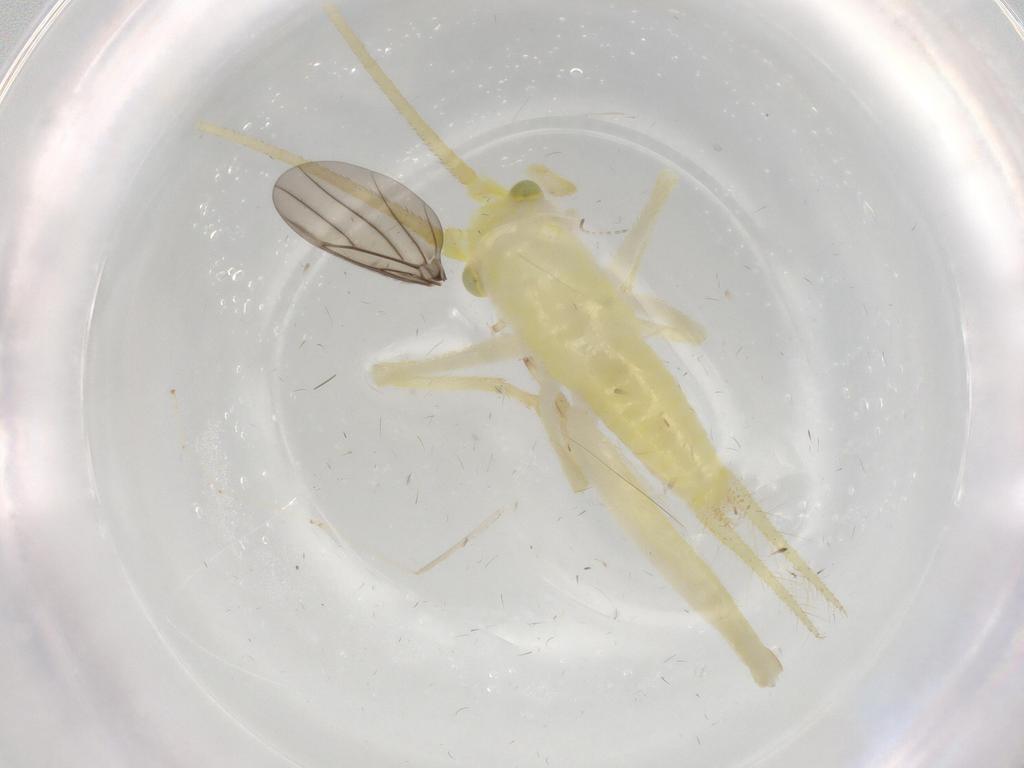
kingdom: Animalia
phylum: Arthropoda
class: Insecta
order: Orthoptera
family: Trigonidiidae
